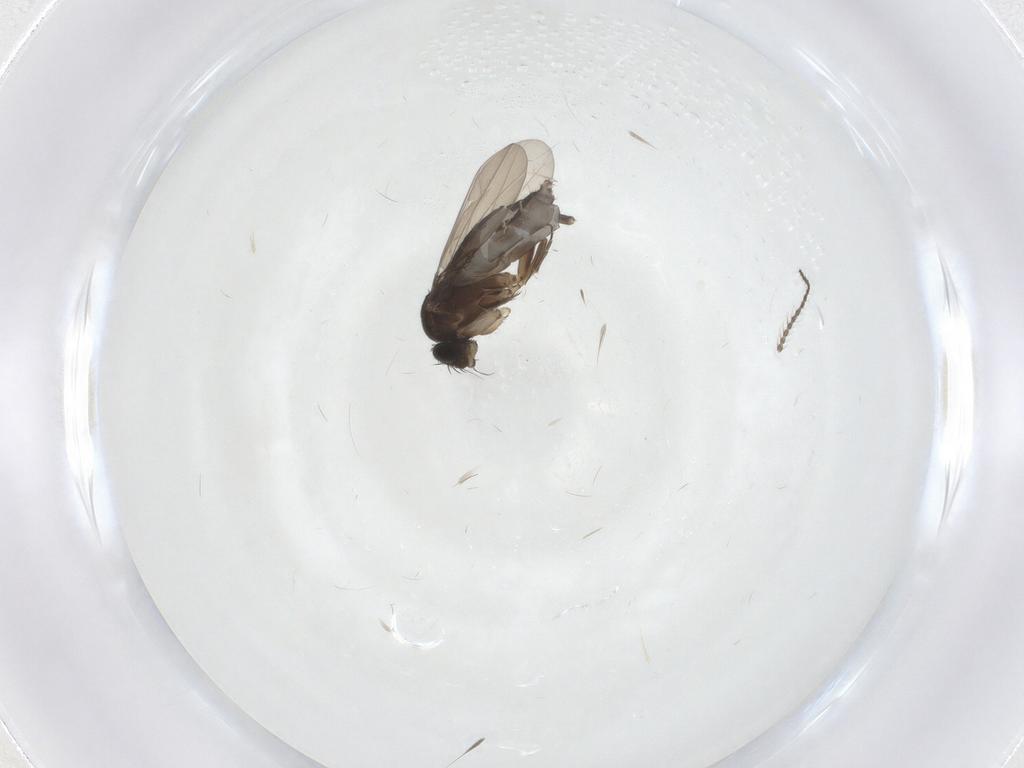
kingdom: Animalia
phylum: Arthropoda
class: Insecta
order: Diptera
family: Phoridae
